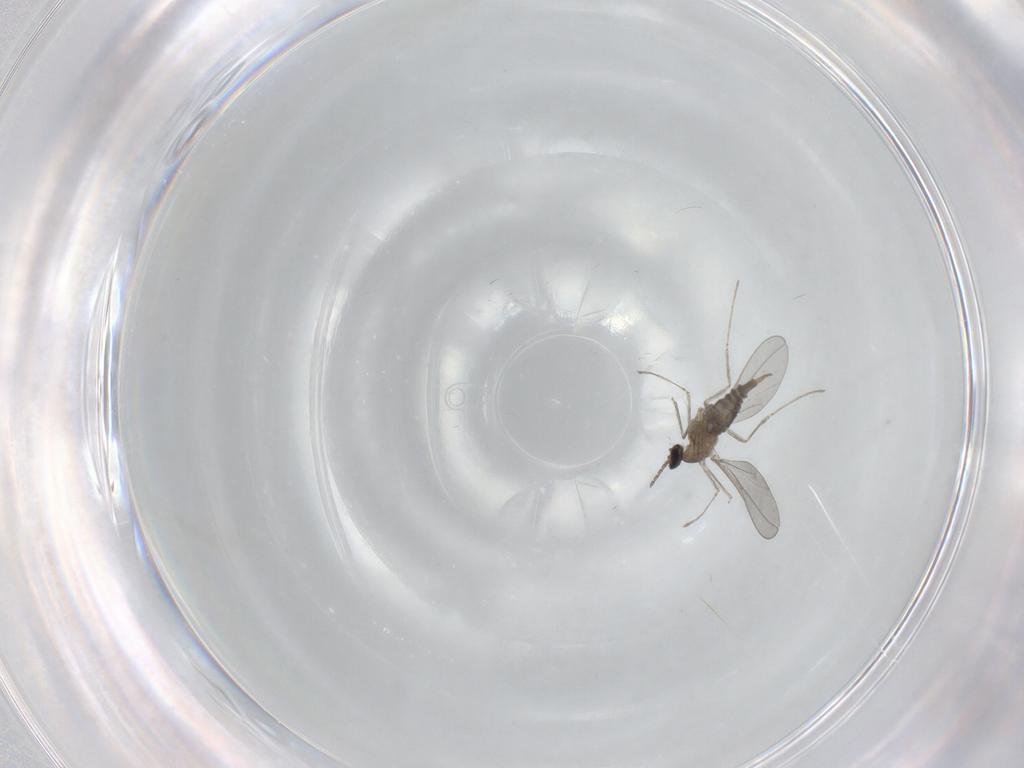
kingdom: Animalia
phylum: Arthropoda
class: Insecta
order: Diptera
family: Cecidomyiidae
